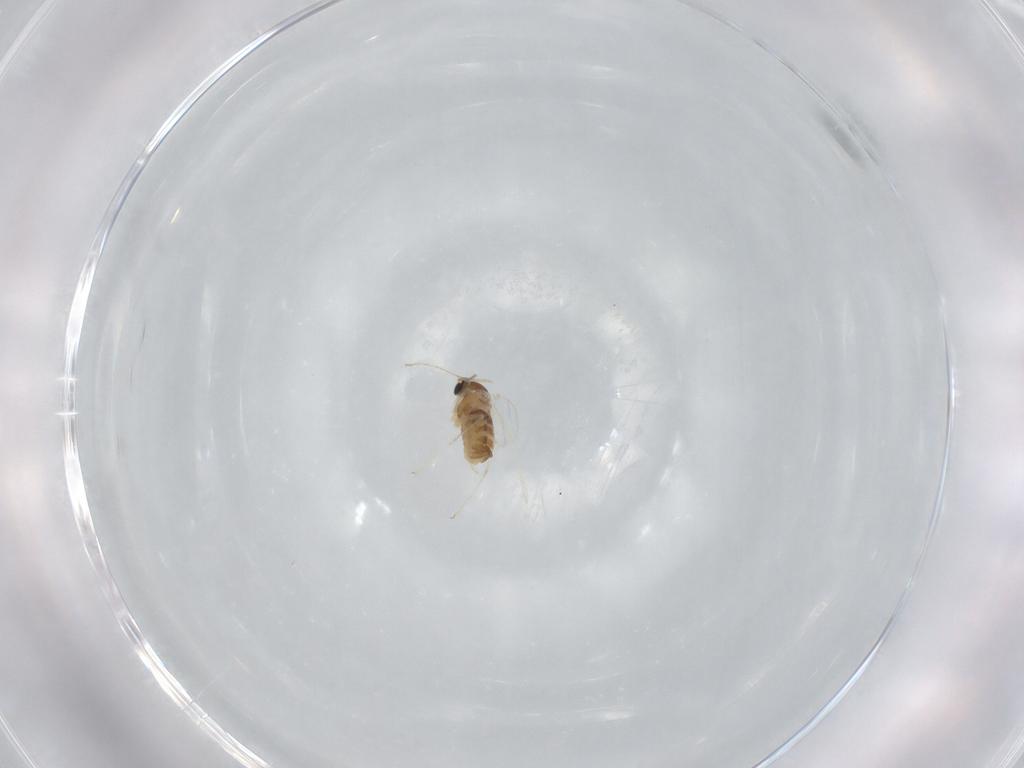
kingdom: Animalia
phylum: Arthropoda
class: Insecta
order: Diptera
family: Cecidomyiidae
